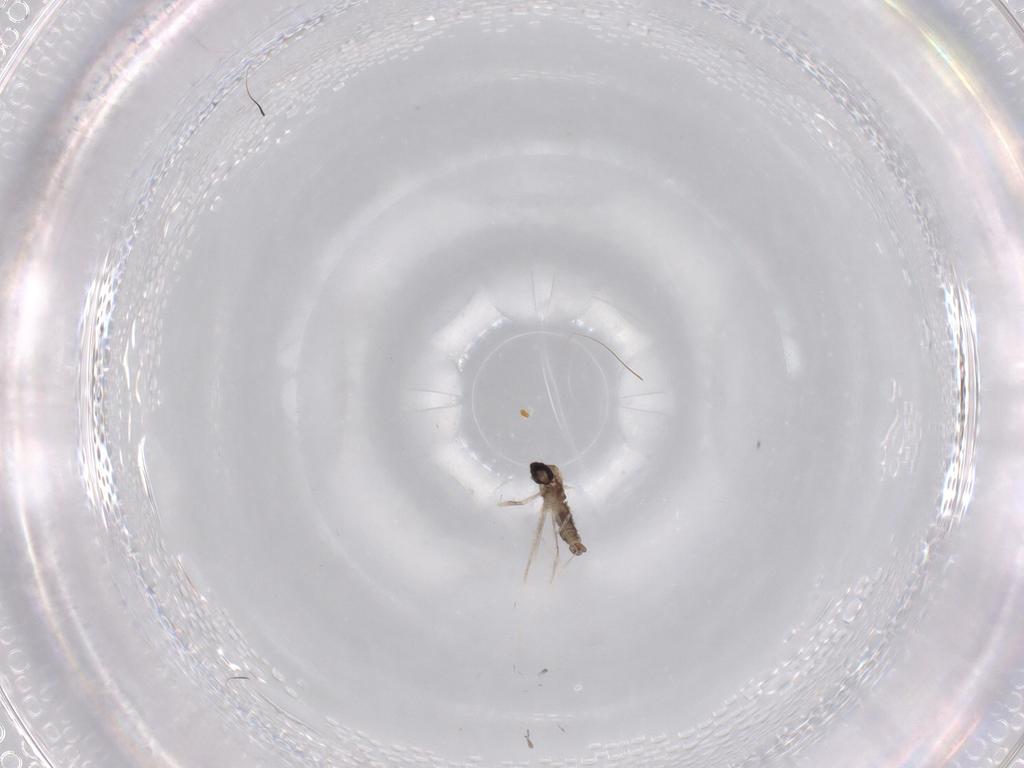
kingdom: Animalia
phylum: Arthropoda
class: Insecta
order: Diptera
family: Cecidomyiidae
